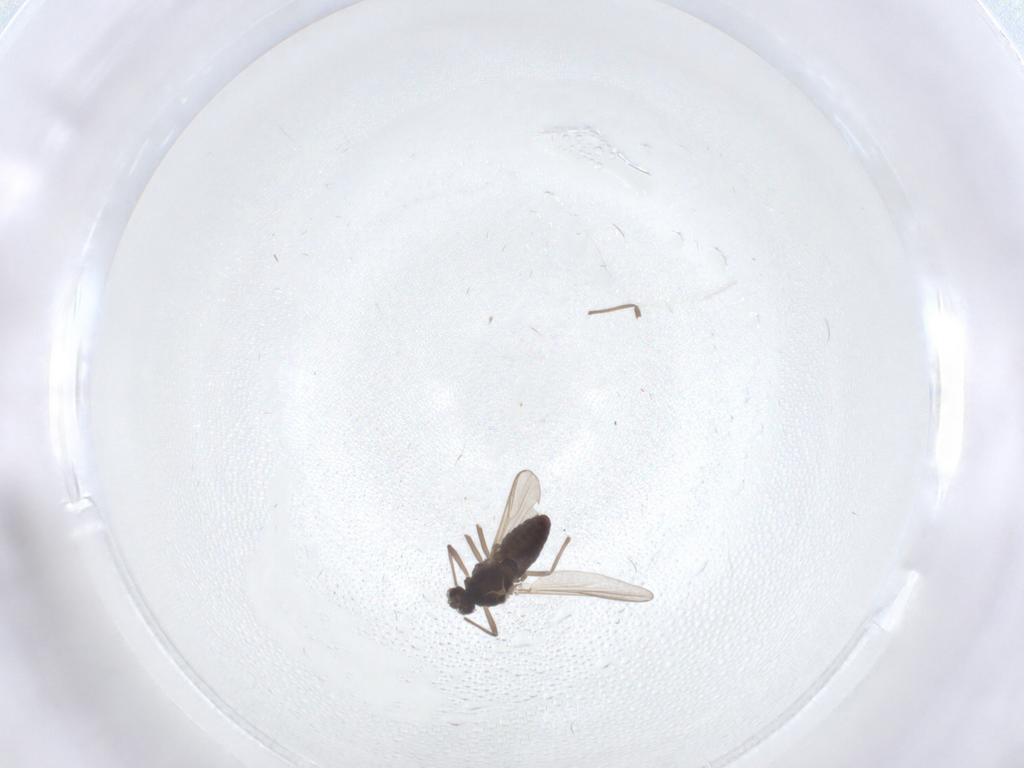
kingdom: Animalia
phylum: Arthropoda
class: Insecta
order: Diptera
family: Chironomidae
